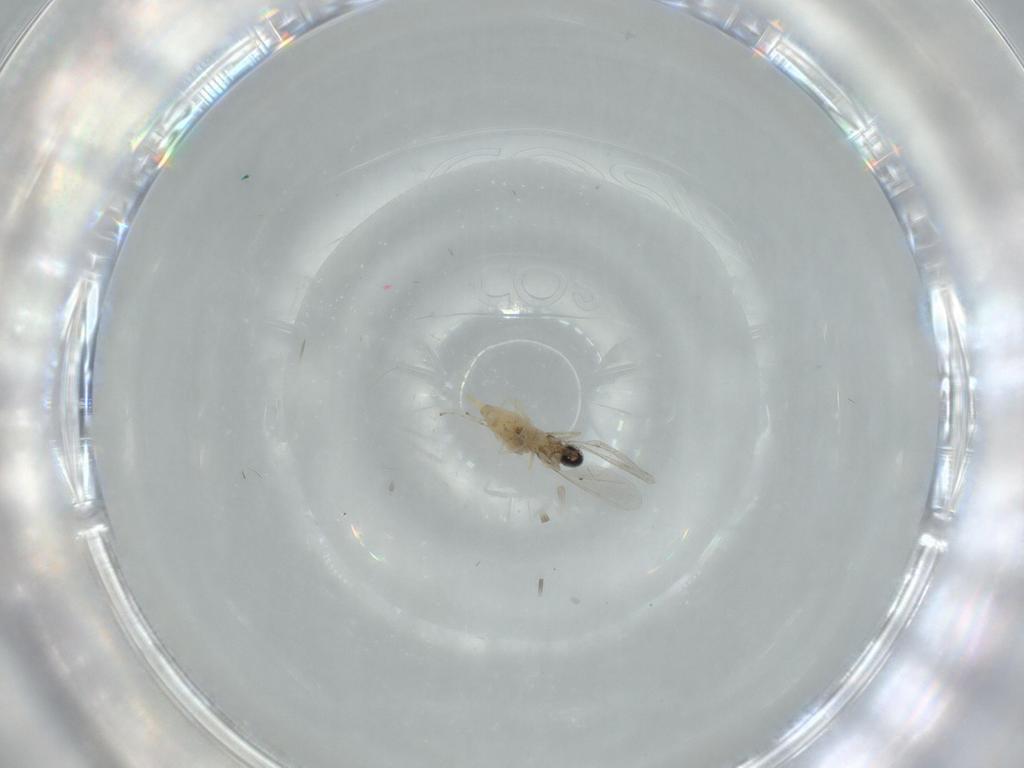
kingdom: Animalia
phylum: Arthropoda
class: Insecta
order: Diptera
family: Cecidomyiidae
